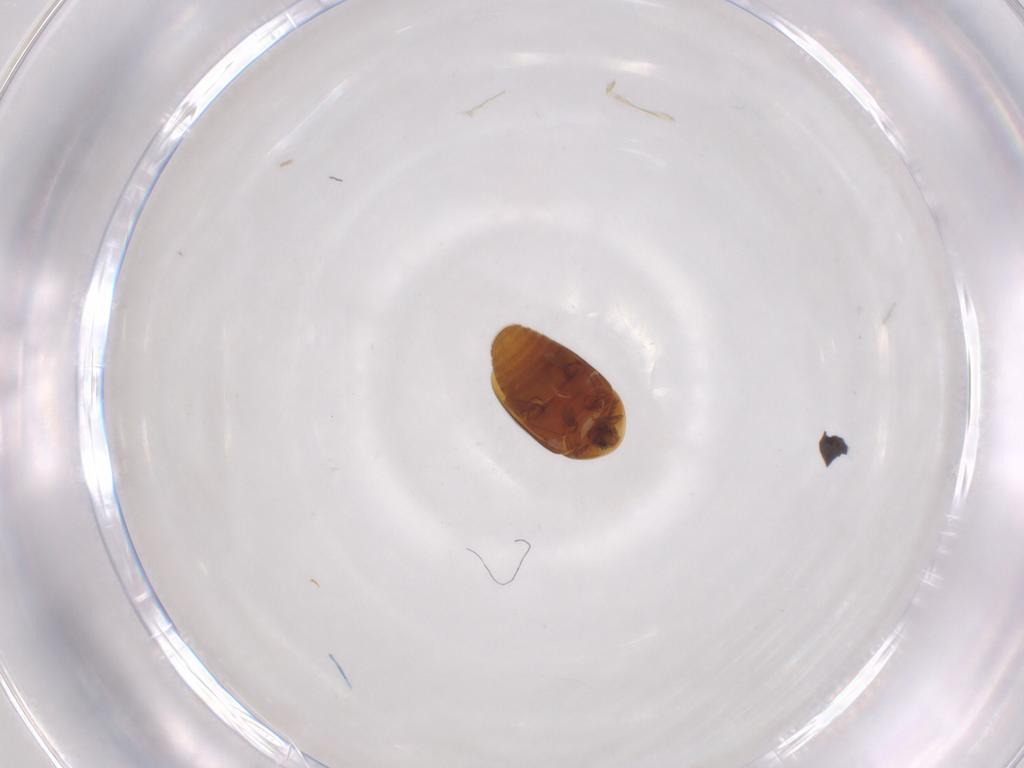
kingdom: Animalia
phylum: Arthropoda
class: Insecta
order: Coleoptera
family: Corylophidae
